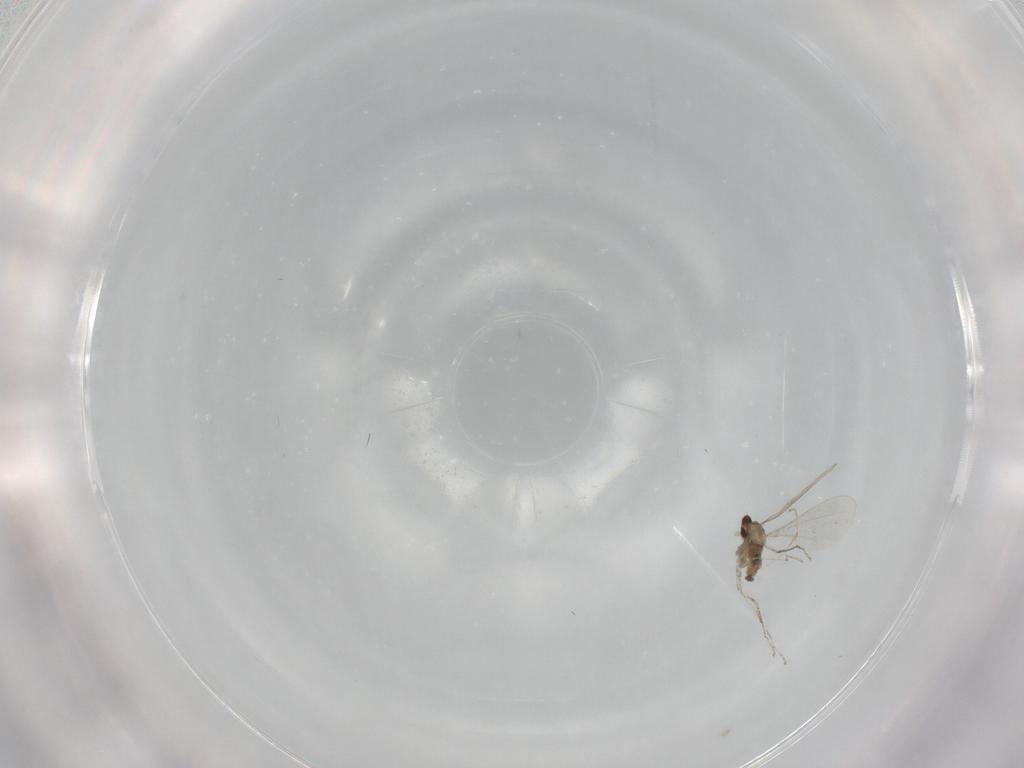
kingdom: Animalia
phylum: Arthropoda
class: Insecta
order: Diptera
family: Cecidomyiidae
